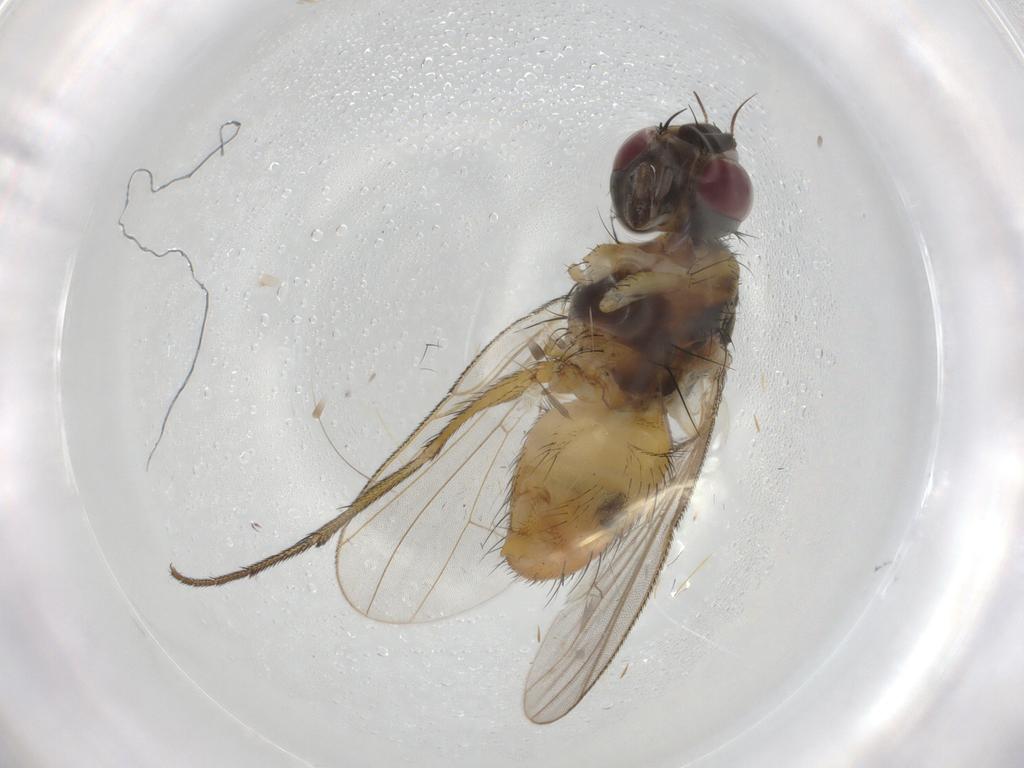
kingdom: Animalia
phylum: Arthropoda
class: Insecta
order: Diptera
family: Muscidae
